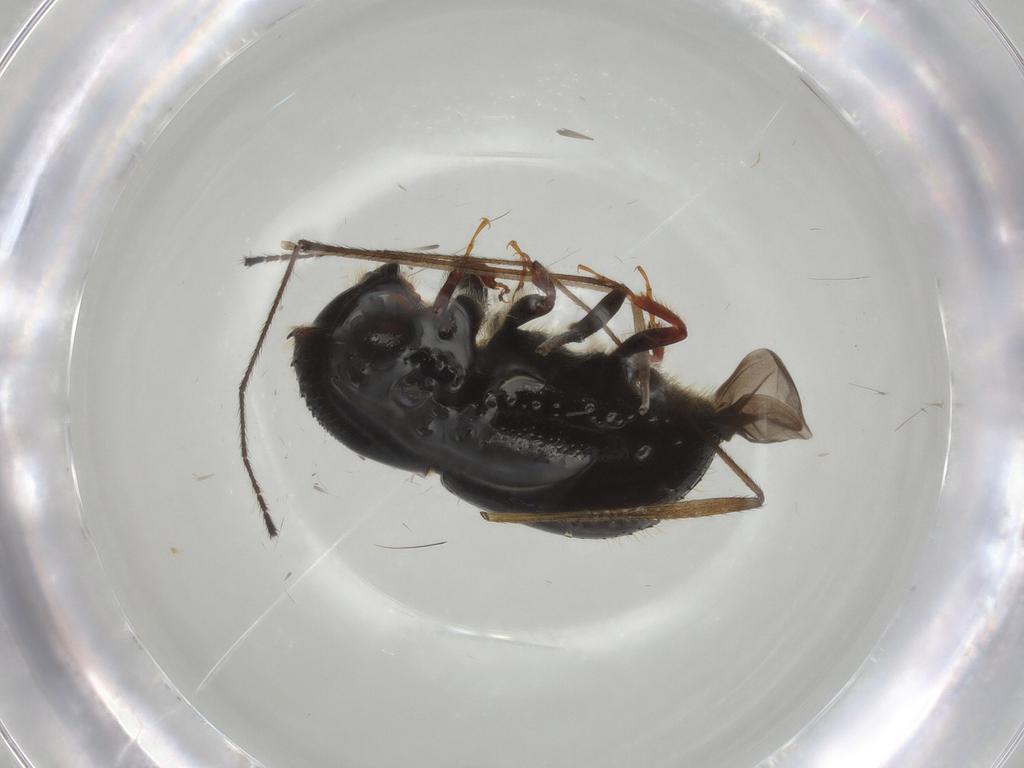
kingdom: Animalia
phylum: Arthropoda
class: Insecta
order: Coleoptera
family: Curculionidae
